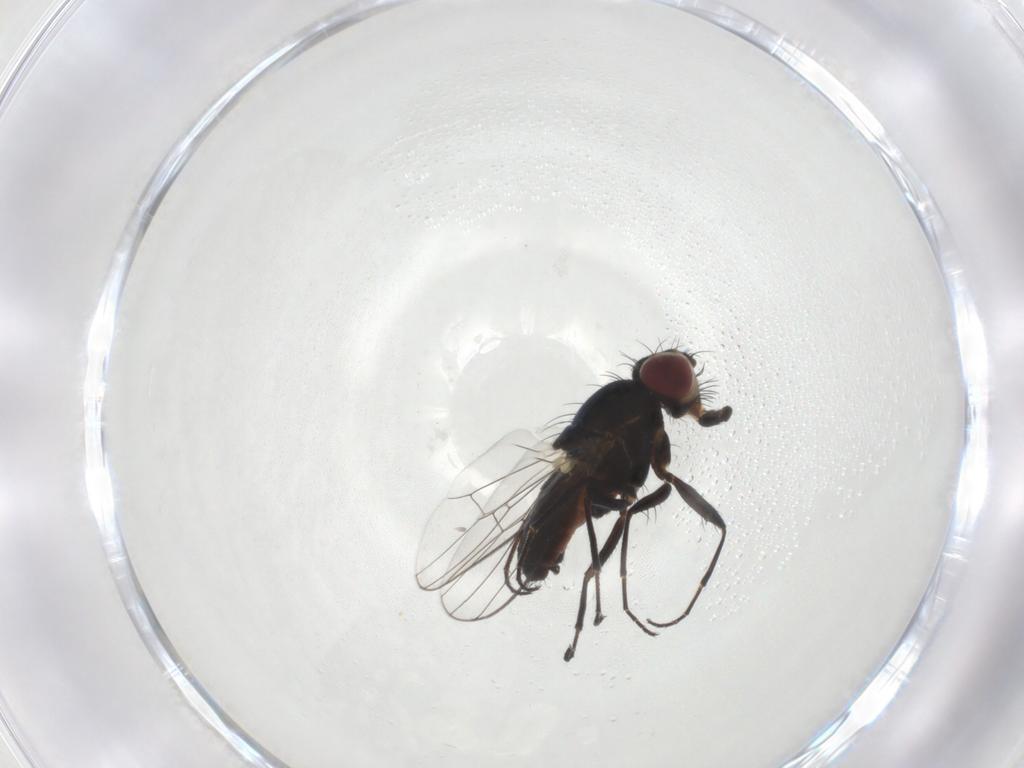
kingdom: Animalia
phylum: Arthropoda
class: Insecta
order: Diptera
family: Carnidae
